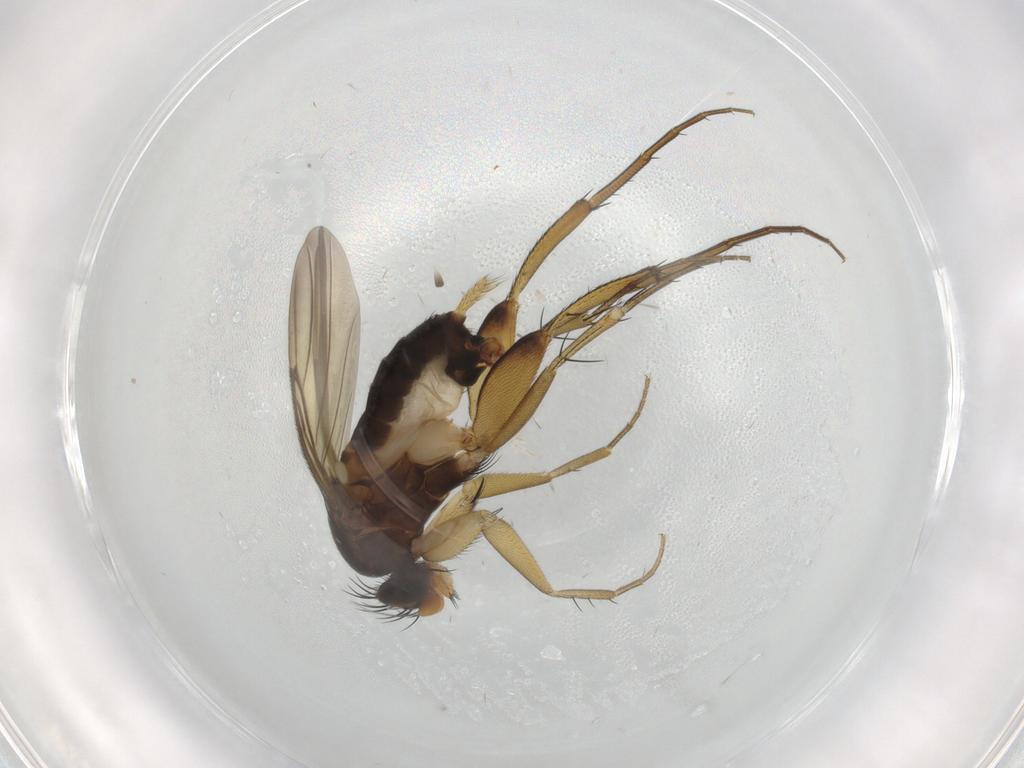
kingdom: Animalia
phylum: Arthropoda
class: Insecta
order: Diptera
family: Phoridae
